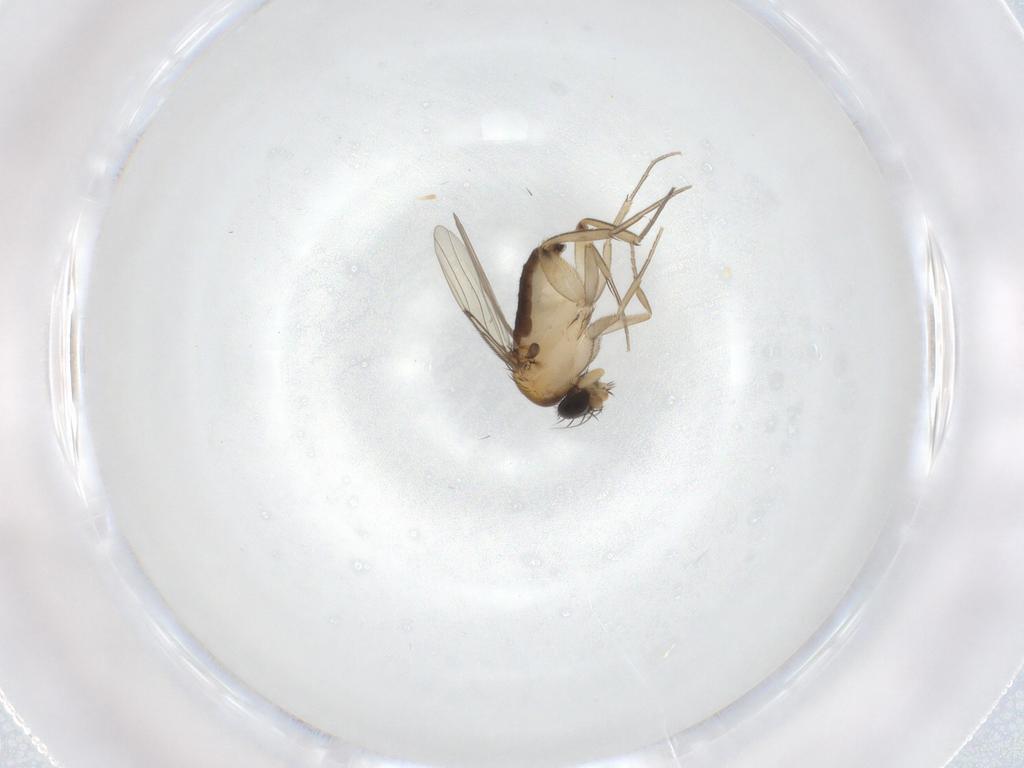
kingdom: Animalia
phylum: Arthropoda
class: Insecta
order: Diptera
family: Phoridae
